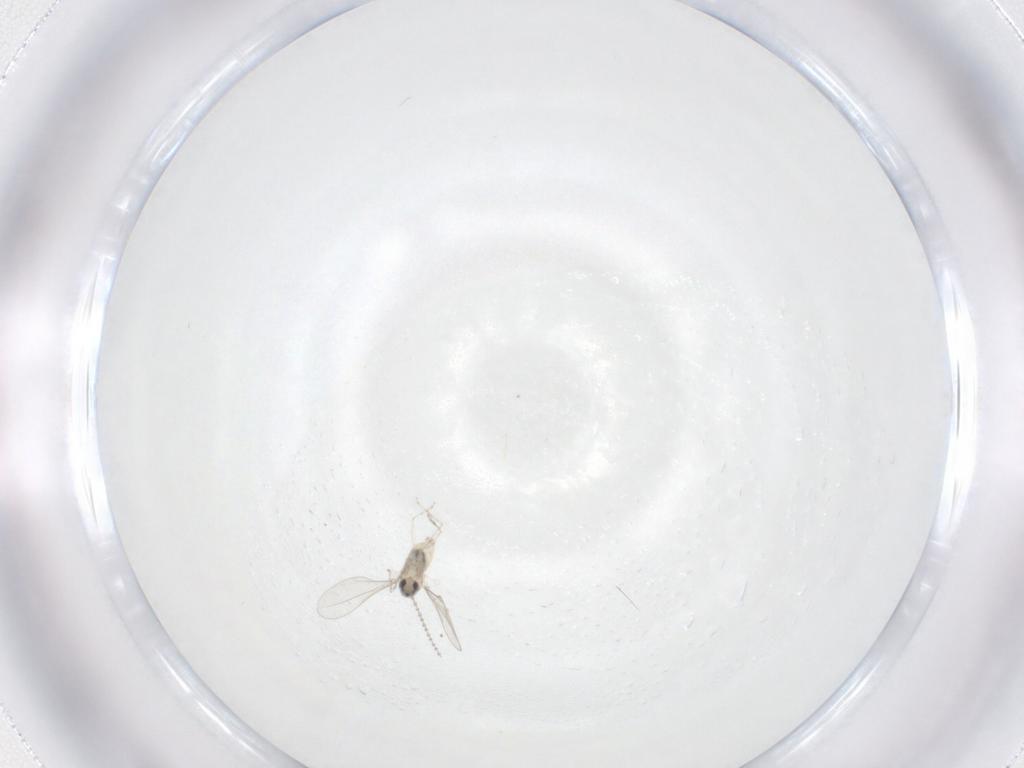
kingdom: Animalia
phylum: Arthropoda
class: Insecta
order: Diptera
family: Cecidomyiidae
